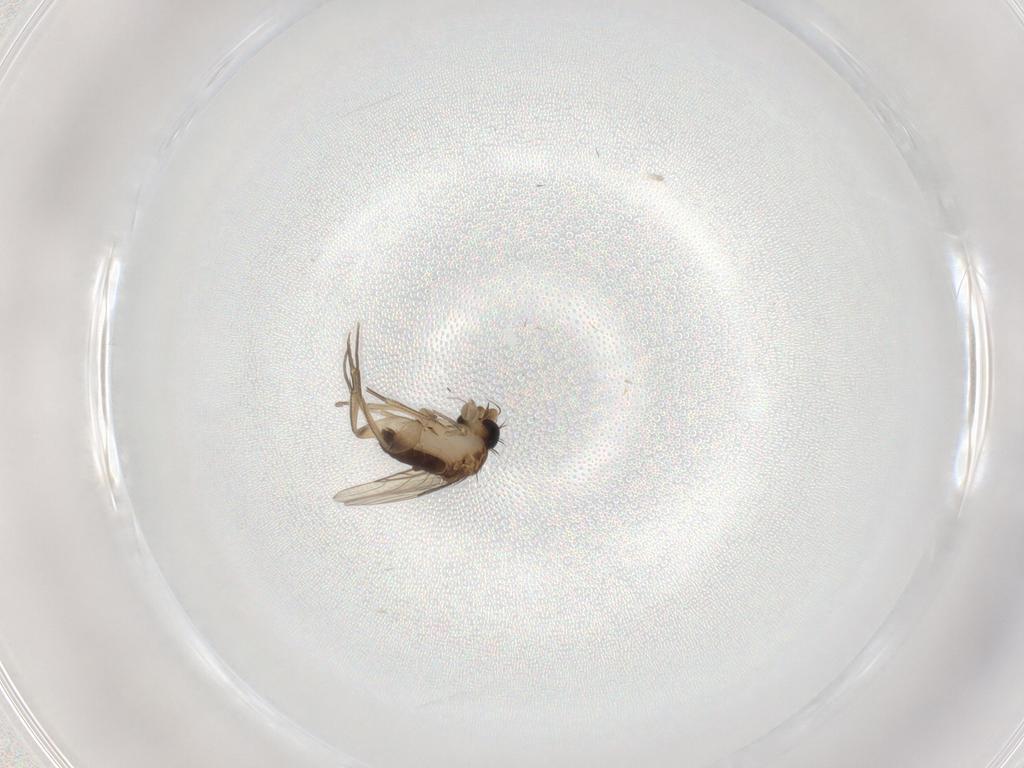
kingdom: Animalia
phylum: Arthropoda
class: Insecta
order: Diptera
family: Phoridae
